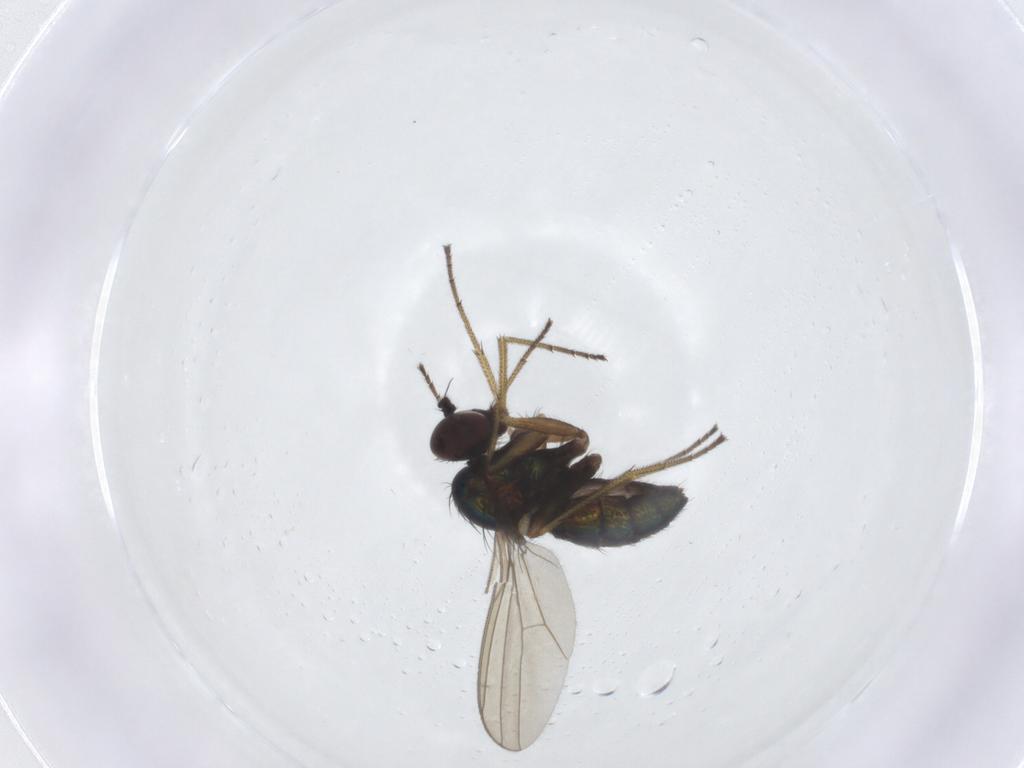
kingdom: Animalia
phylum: Arthropoda
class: Insecta
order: Diptera
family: Dolichopodidae
